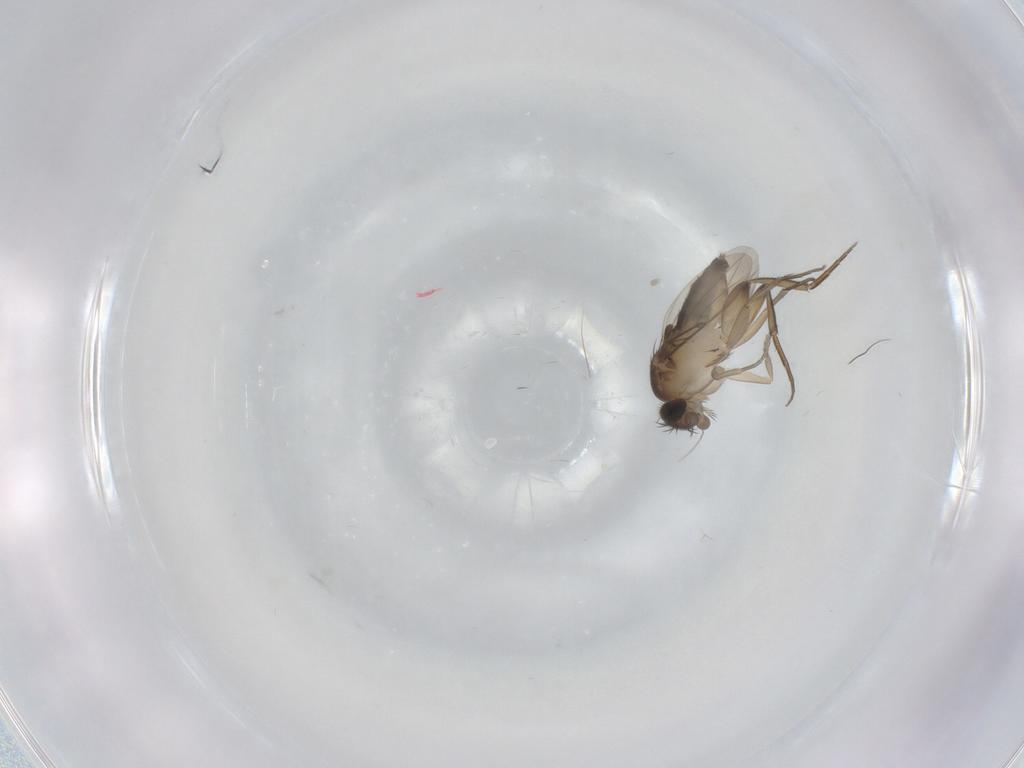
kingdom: Animalia
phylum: Arthropoda
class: Insecta
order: Diptera
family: Phoridae
